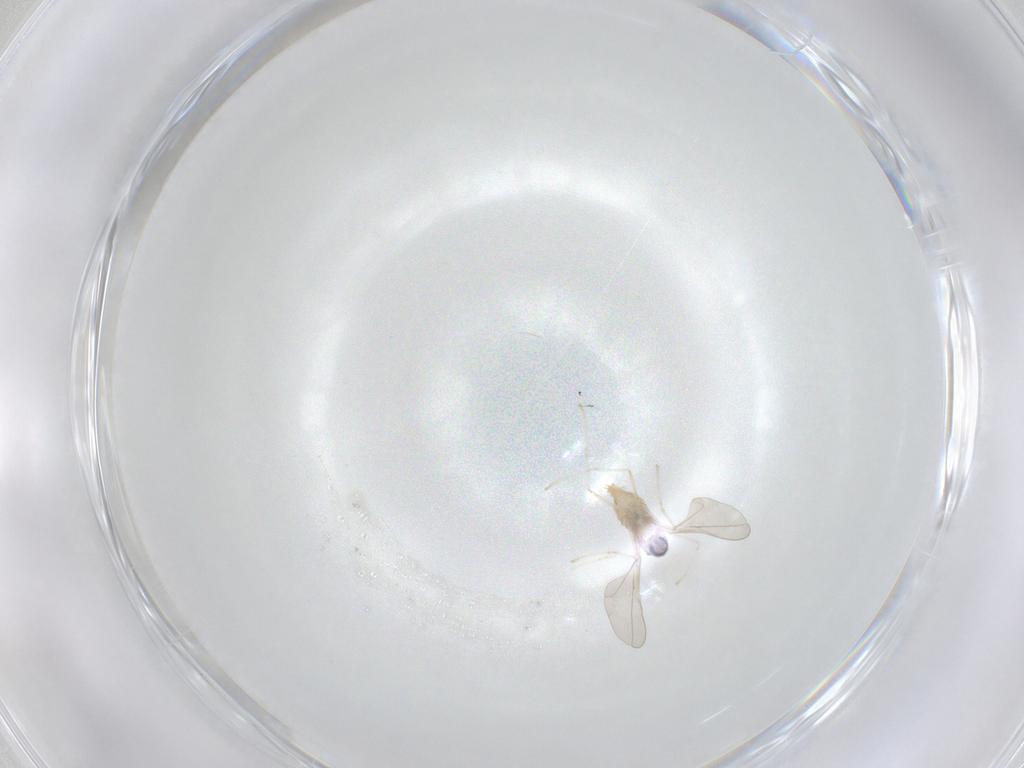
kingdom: Animalia
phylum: Arthropoda
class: Insecta
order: Diptera
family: Cecidomyiidae
